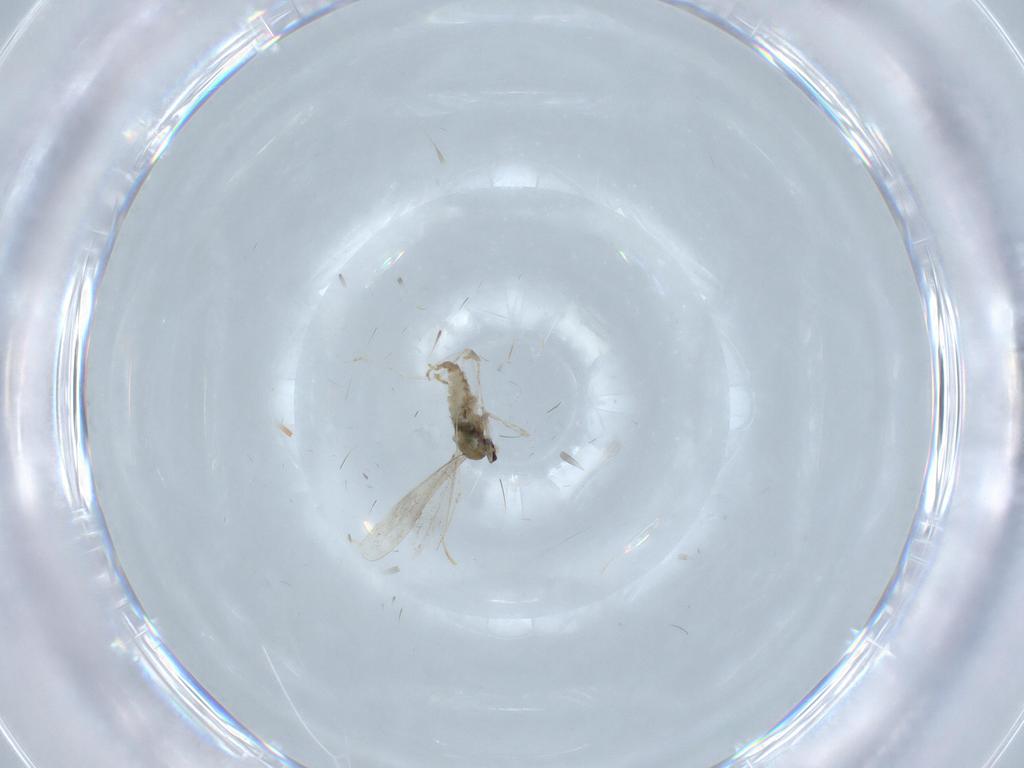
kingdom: Animalia
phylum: Arthropoda
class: Insecta
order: Diptera
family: Cecidomyiidae
